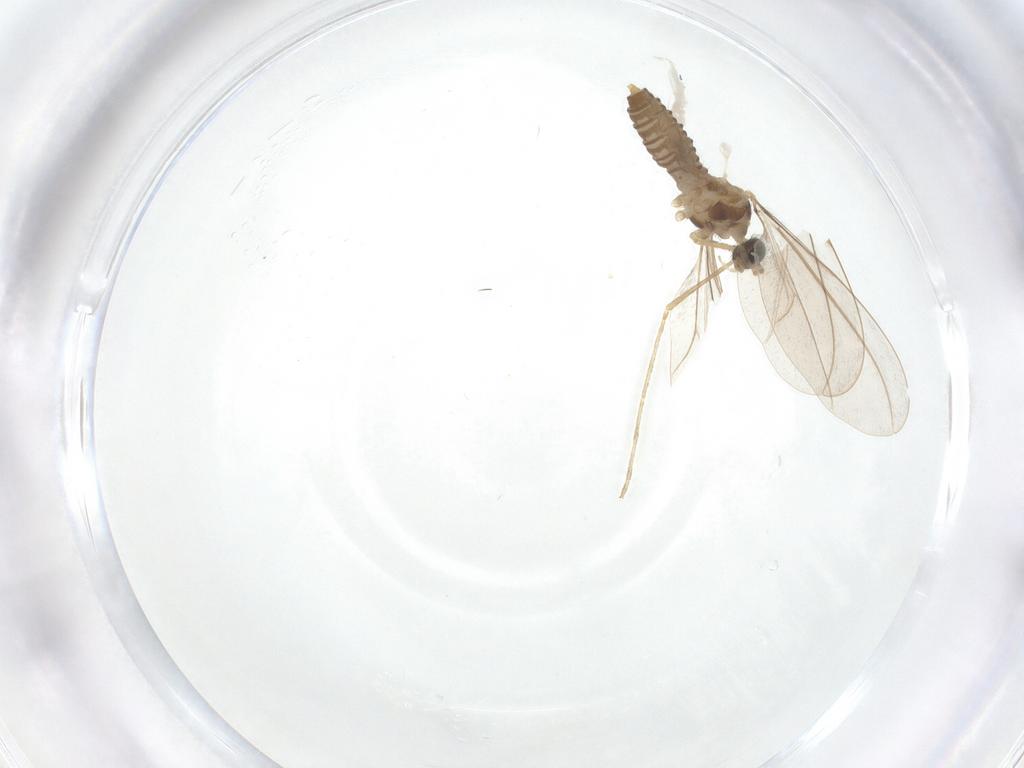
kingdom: Animalia
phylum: Arthropoda
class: Insecta
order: Diptera
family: Cecidomyiidae
